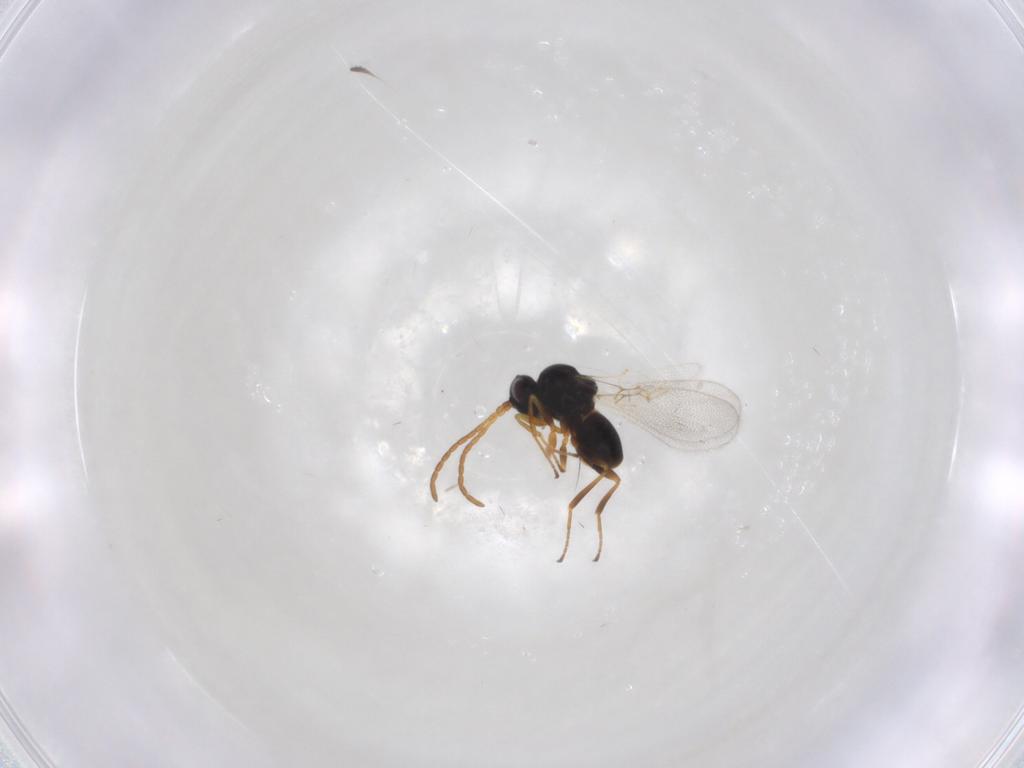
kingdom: Animalia
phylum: Arthropoda
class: Insecta
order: Hymenoptera
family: Figitidae
